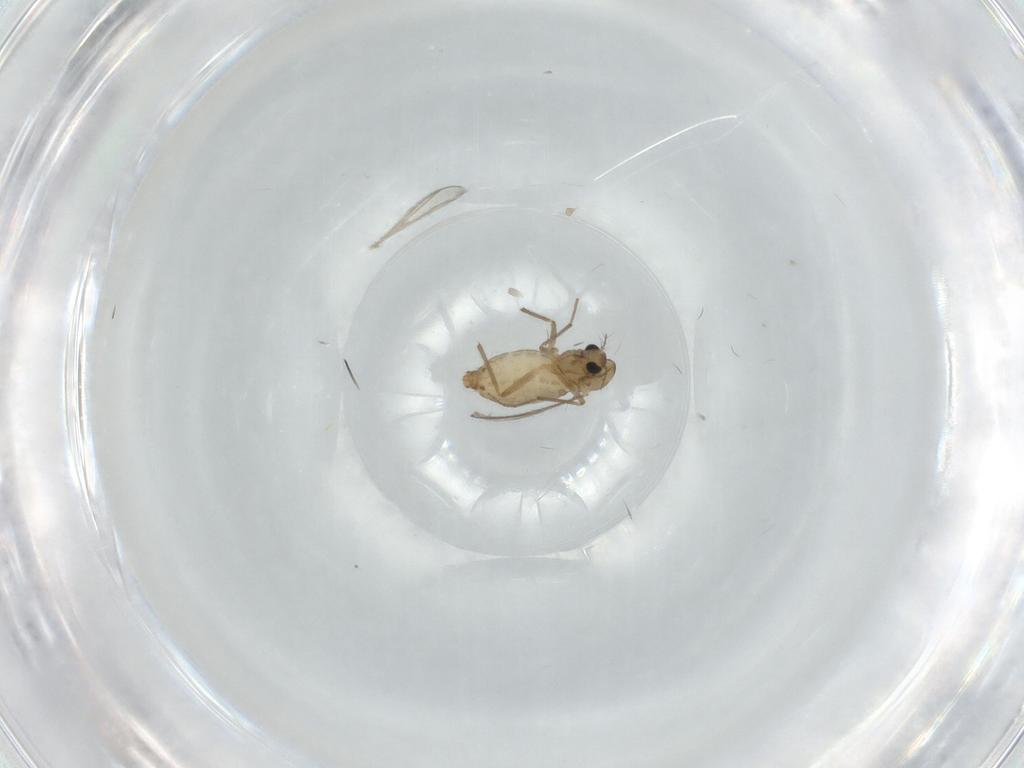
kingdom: Animalia
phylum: Arthropoda
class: Insecta
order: Diptera
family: Chironomidae
